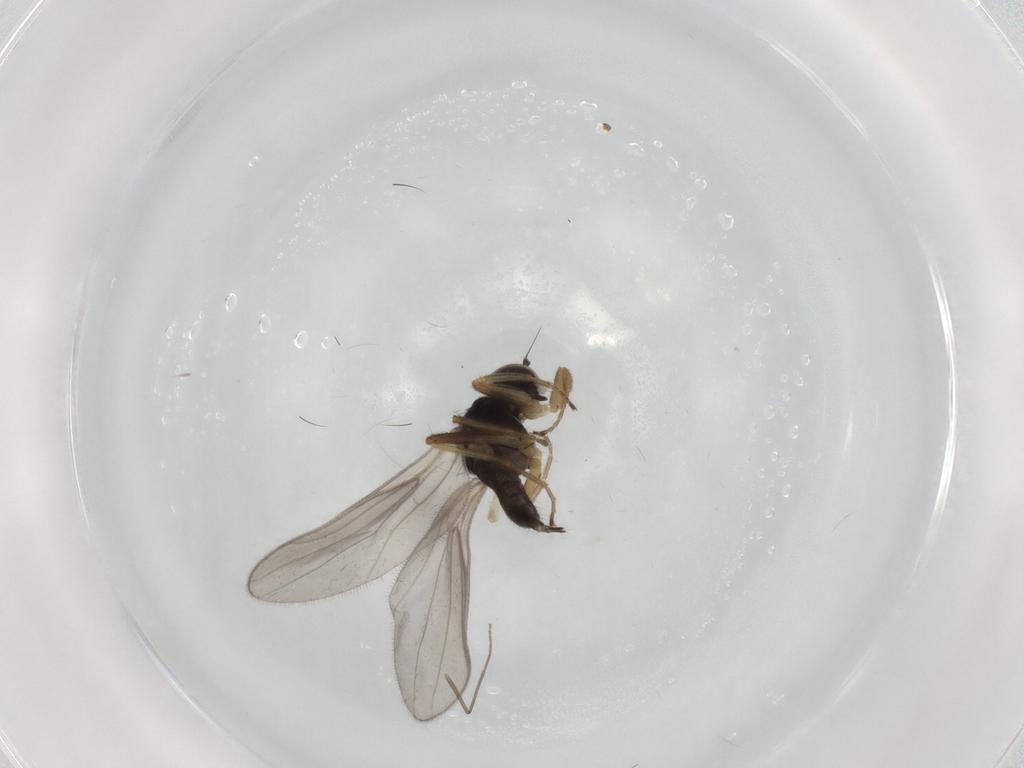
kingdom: Animalia
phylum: Arthropoda
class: Insecta
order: Diptera
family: Hybotidae
